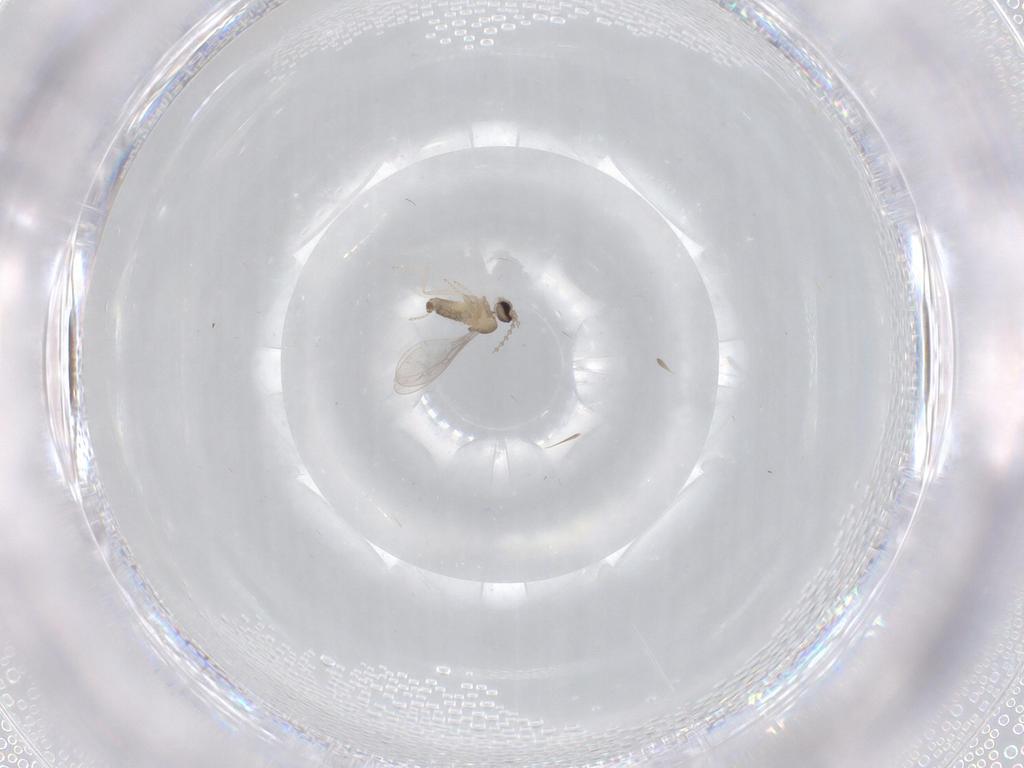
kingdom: Animalia
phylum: Arthropoda
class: Insecta
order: Diptera
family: Cecidomyiidae
